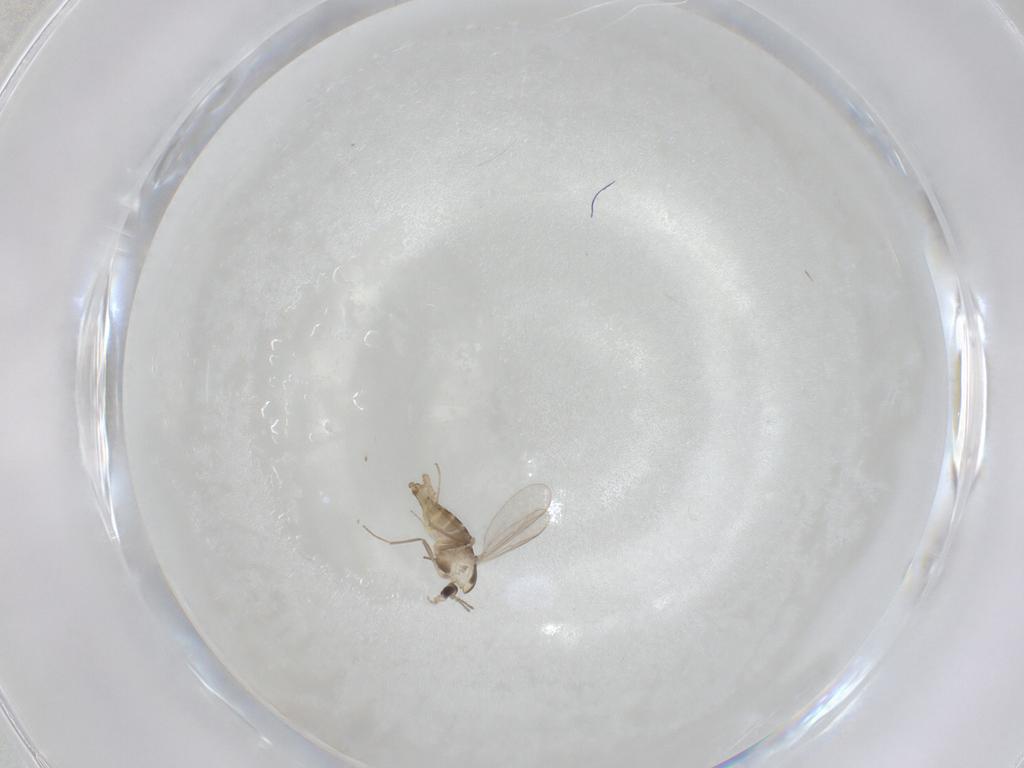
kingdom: Animalia
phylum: Arthropoda
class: Insecta
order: Diptera
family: Chironomidae
